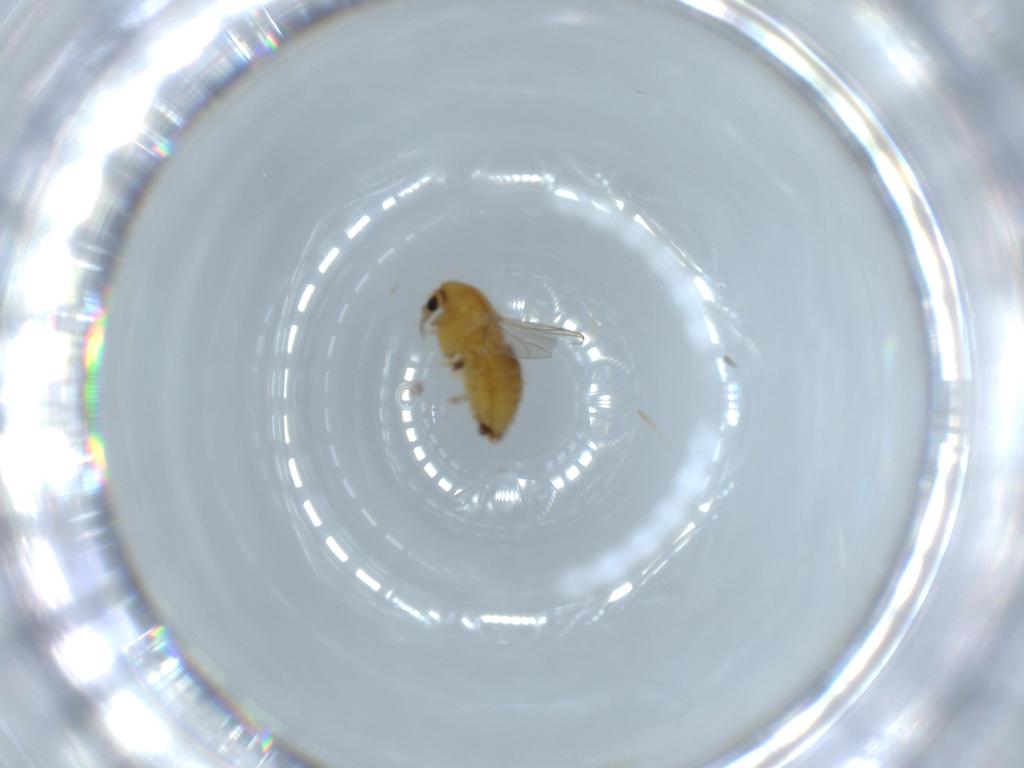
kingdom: Animalia
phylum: Arthropoda
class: Insecta
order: Diptera
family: Chironomidae
